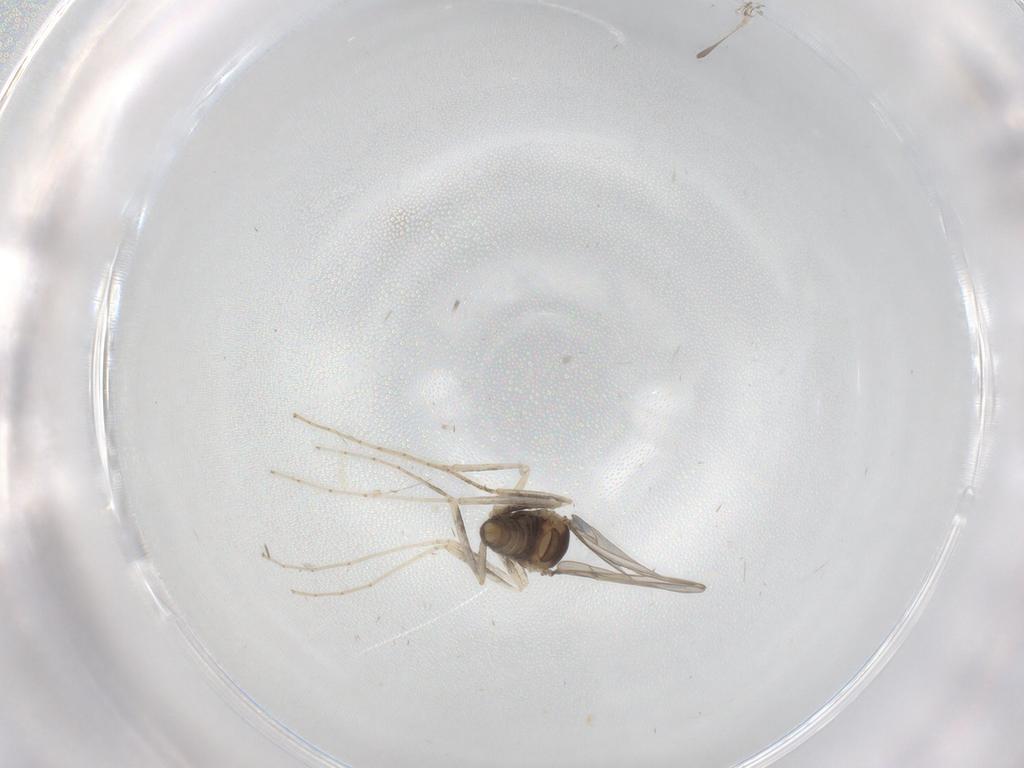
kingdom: Animalia
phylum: Arthropoda
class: Insecta
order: Diptera
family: Cecidomyiidae
